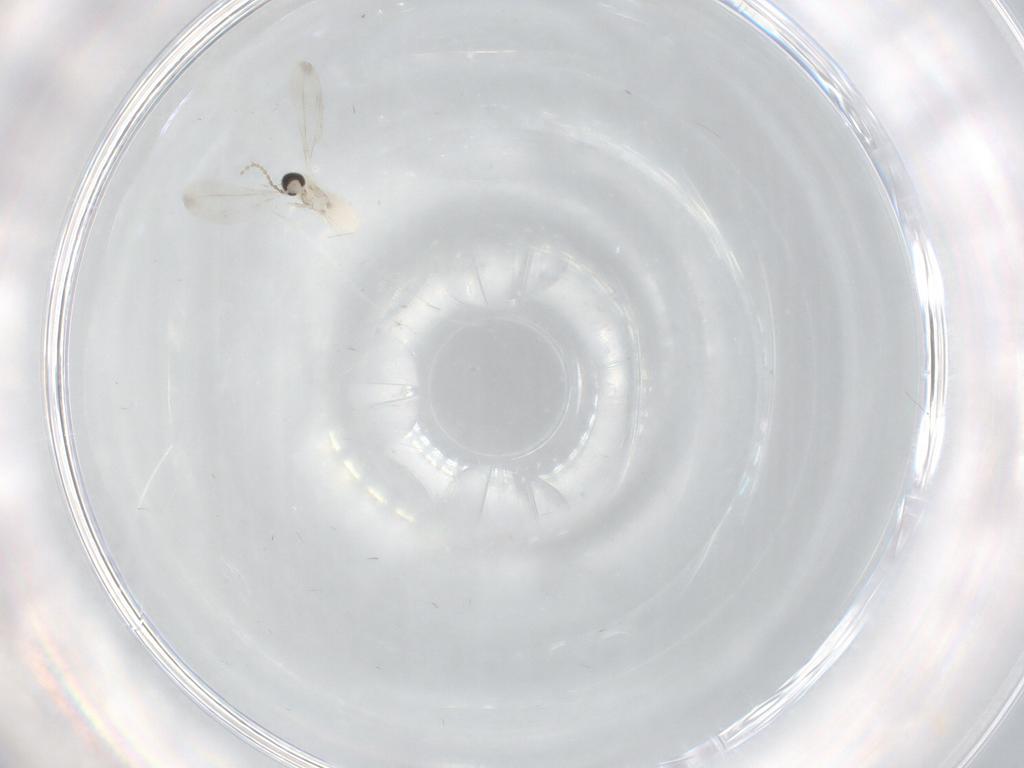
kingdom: Animalia
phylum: Arthropoda
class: Insecta
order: Diptera
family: Cecidomyiidae
